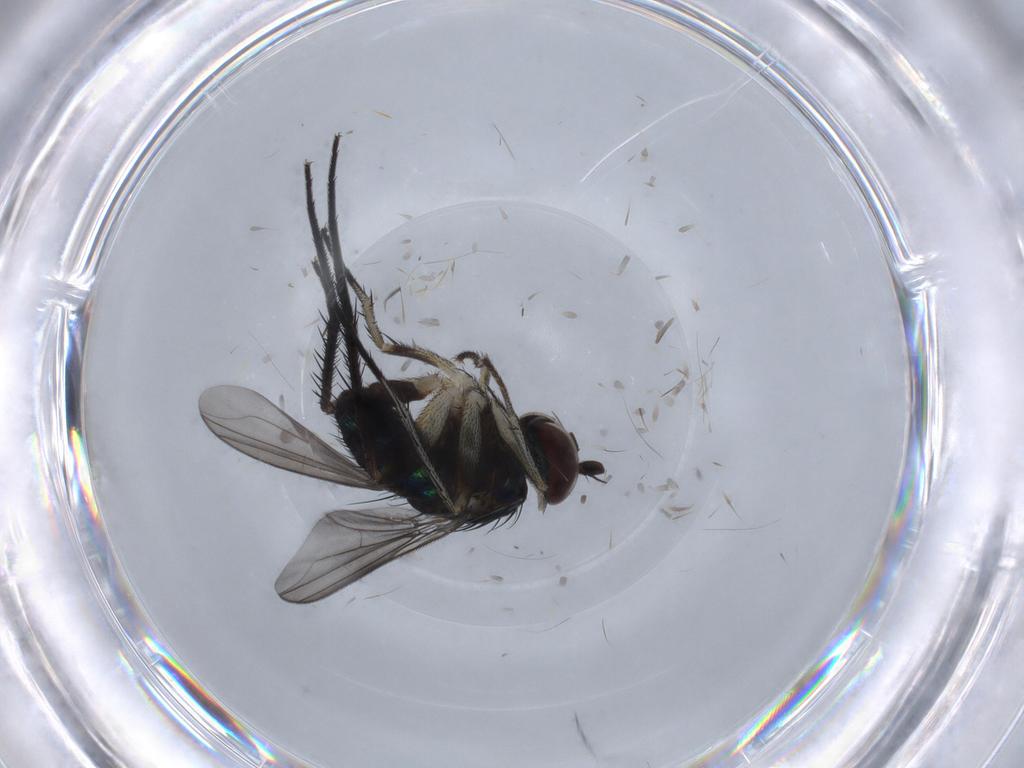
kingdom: Animalia
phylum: Arthropoda
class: Insecta
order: Diptera
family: Dolichopodidae
